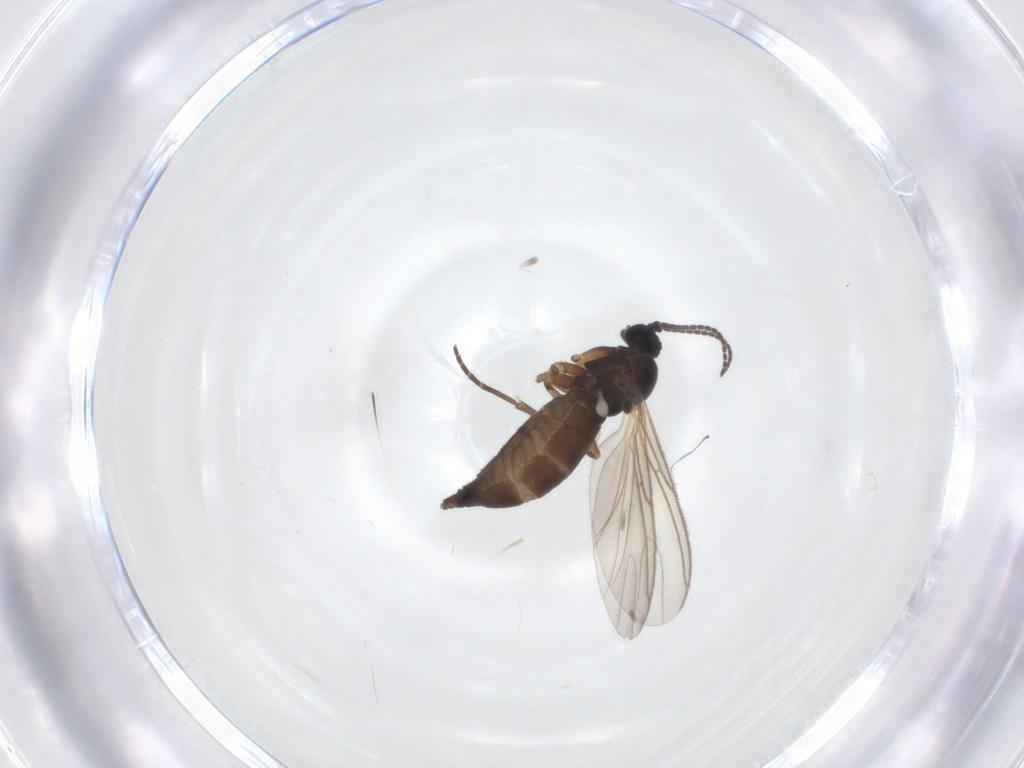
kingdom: Animalia
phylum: Arthropoda
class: Insecta
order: Diptera
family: Sciaridae
